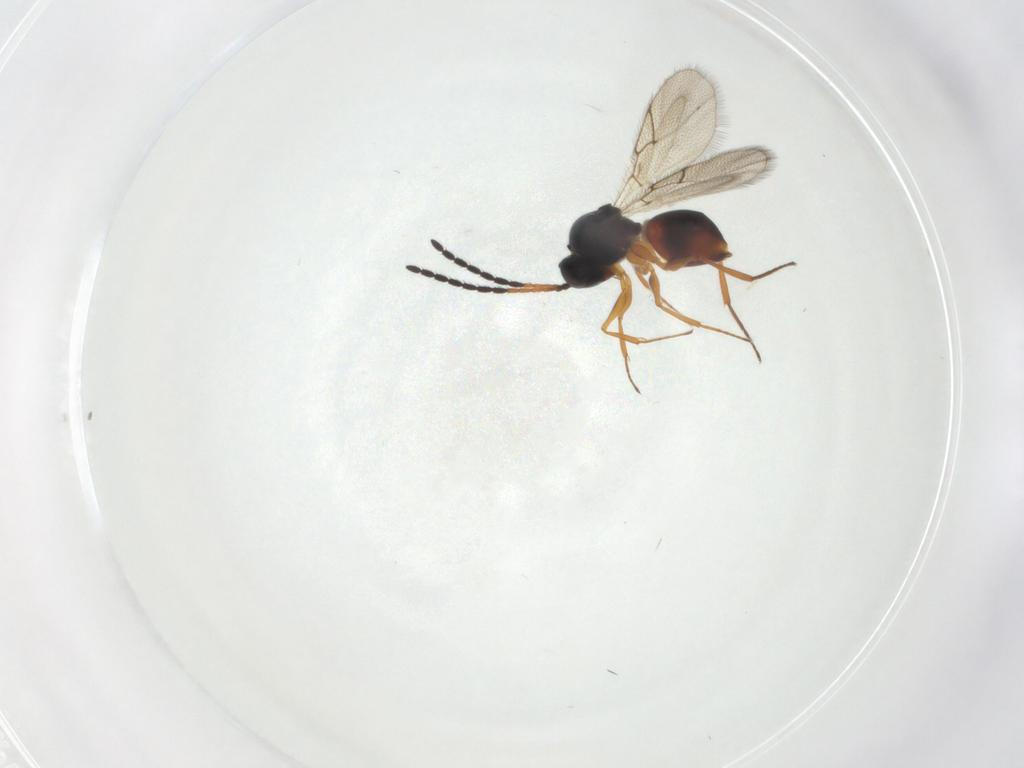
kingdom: Animalia
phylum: Arthropoda
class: Insecta
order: Hymenoptera
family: Figitidae
